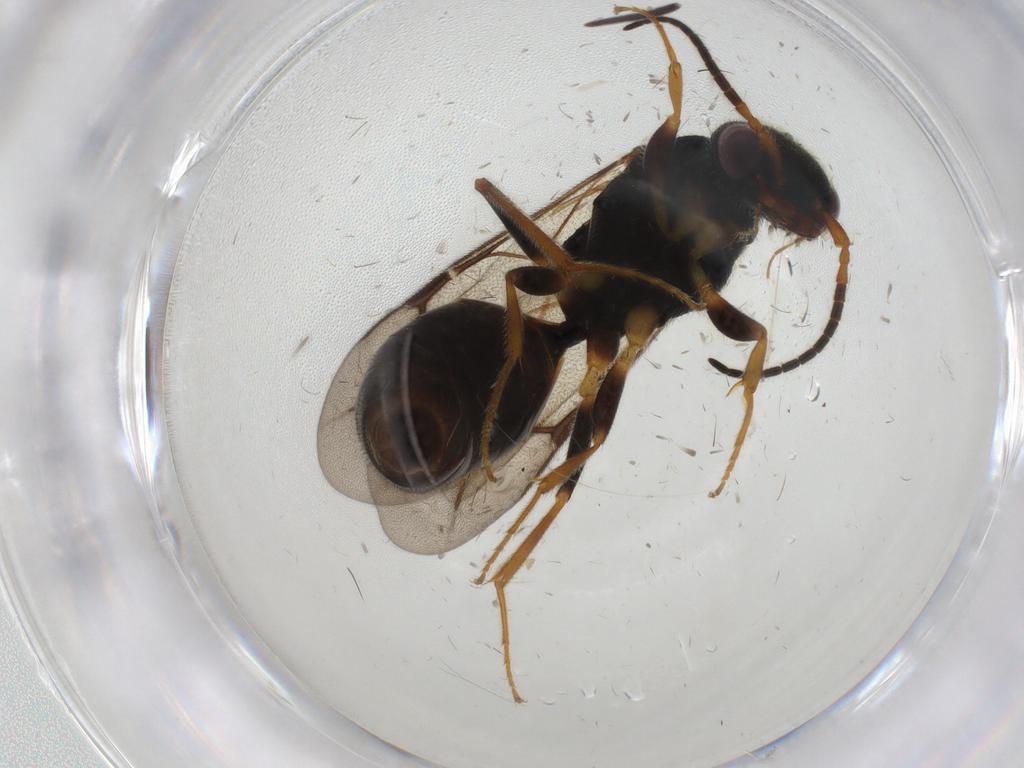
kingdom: Animalia
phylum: Arthropoda
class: Insecta
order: Hymenoptera
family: Bethylidae
